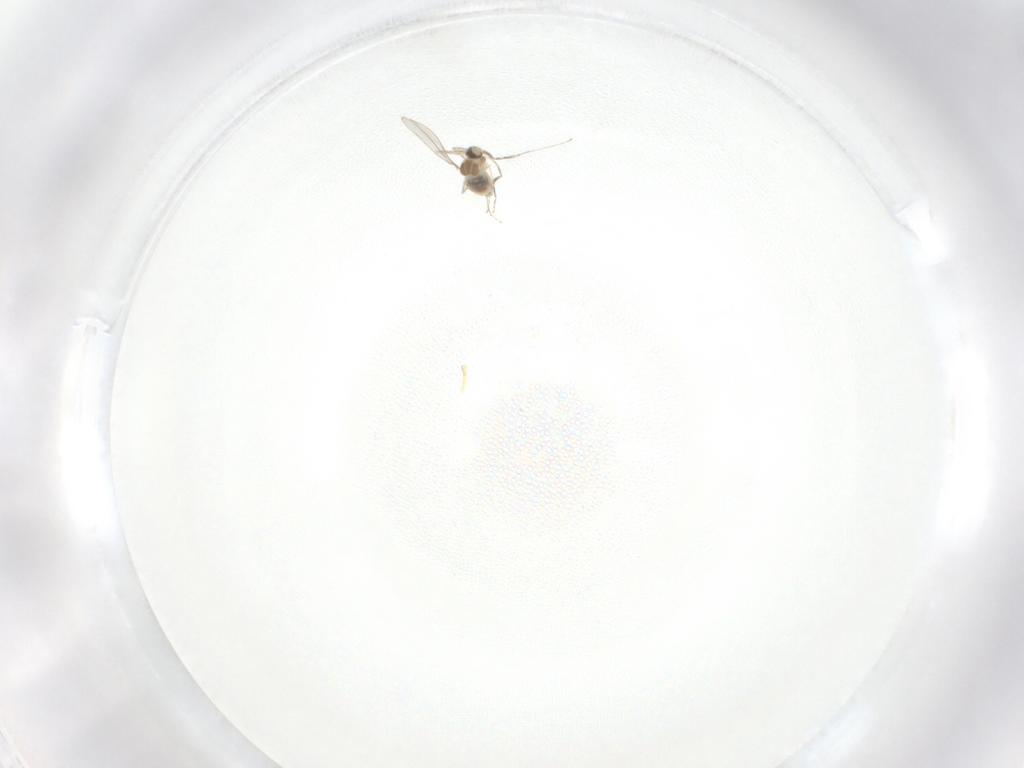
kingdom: Animalia
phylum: Arthropoda
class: Insecta
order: Diptera
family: Cecidomyiidae
